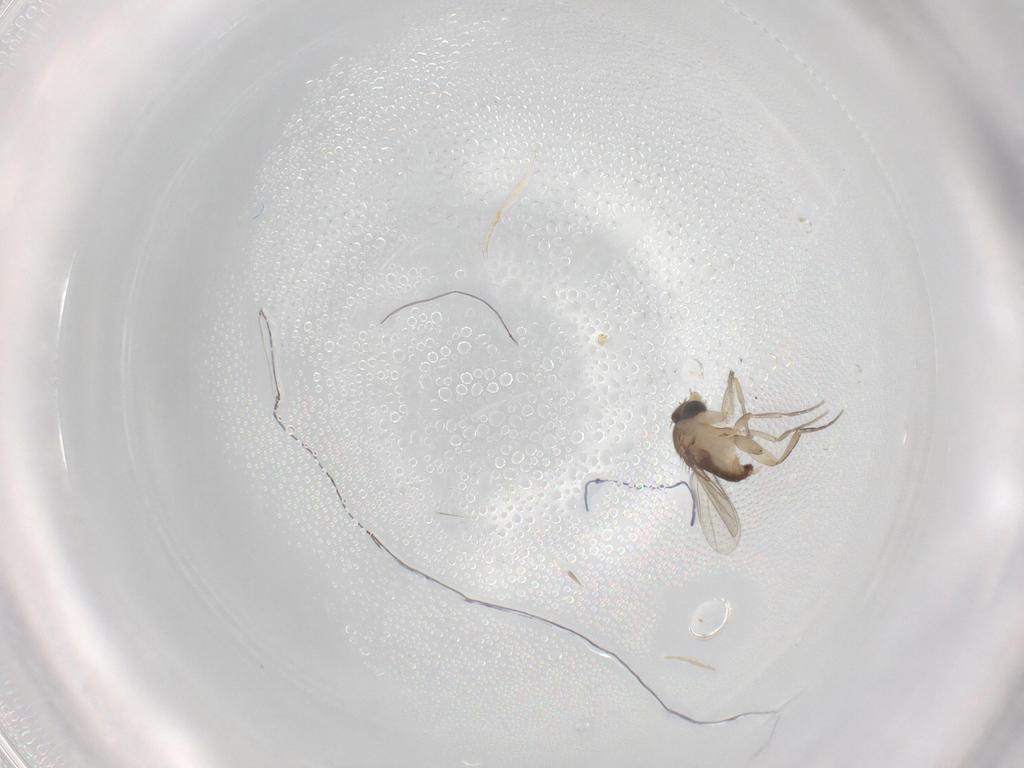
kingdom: Animalia
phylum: Arthropoda
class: Insecta
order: Diptera
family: Phoridae
